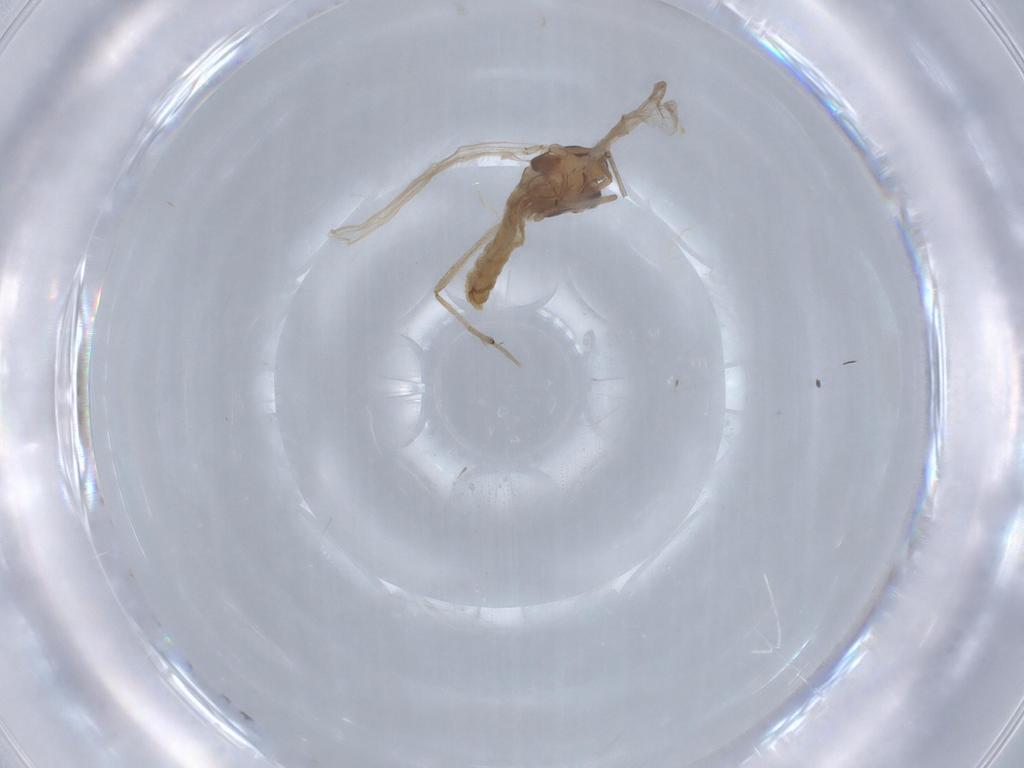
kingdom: Animalia
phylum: Arthropoda
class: Insecta
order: Diptera
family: Chironomidae
